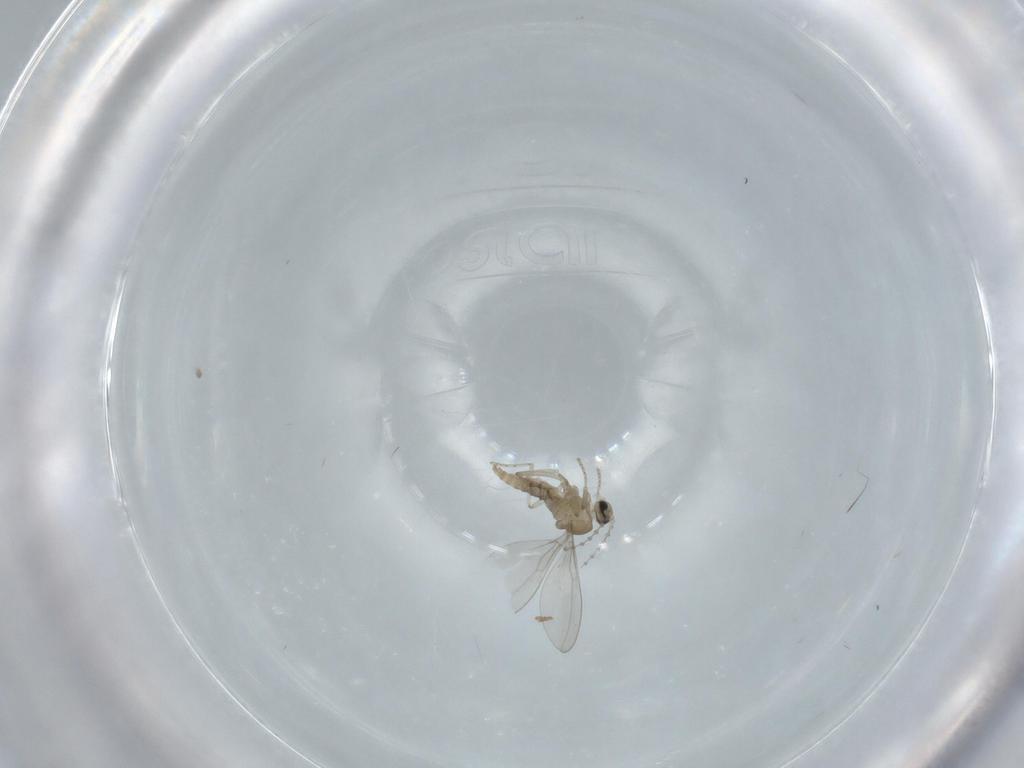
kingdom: Animalia
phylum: Arthropoda
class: Insecta
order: Diptera
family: Cecidomyiidae
